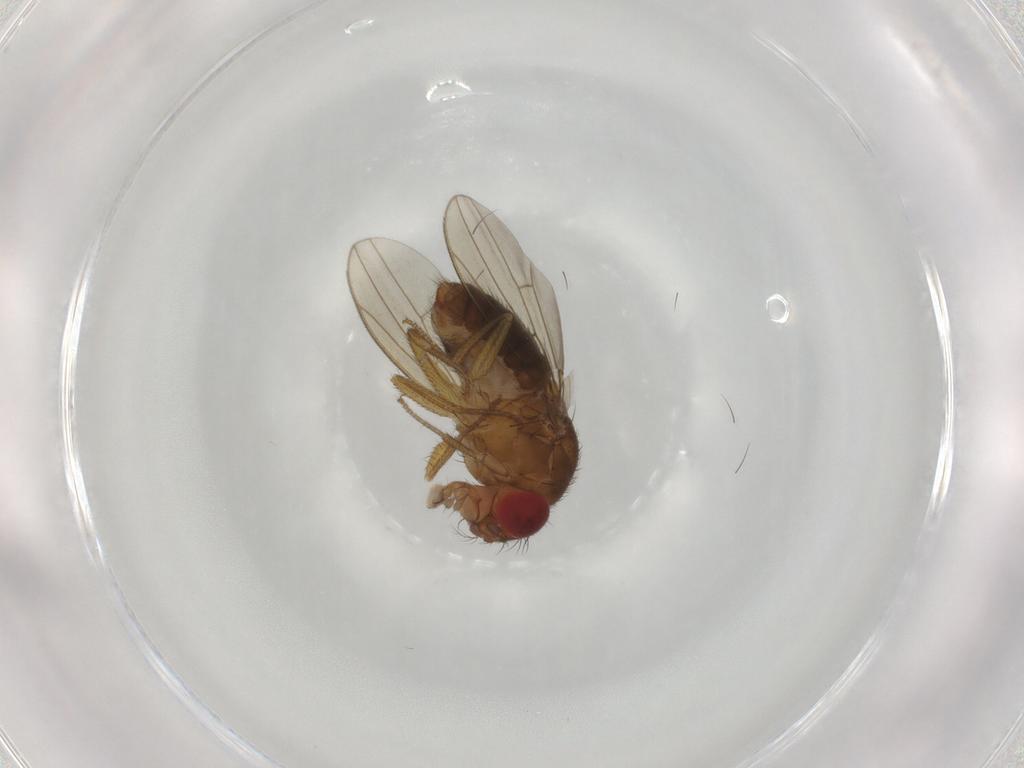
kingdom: Animalia
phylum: Arthropoda
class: Insecta
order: Diptera
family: Drosophilidae
